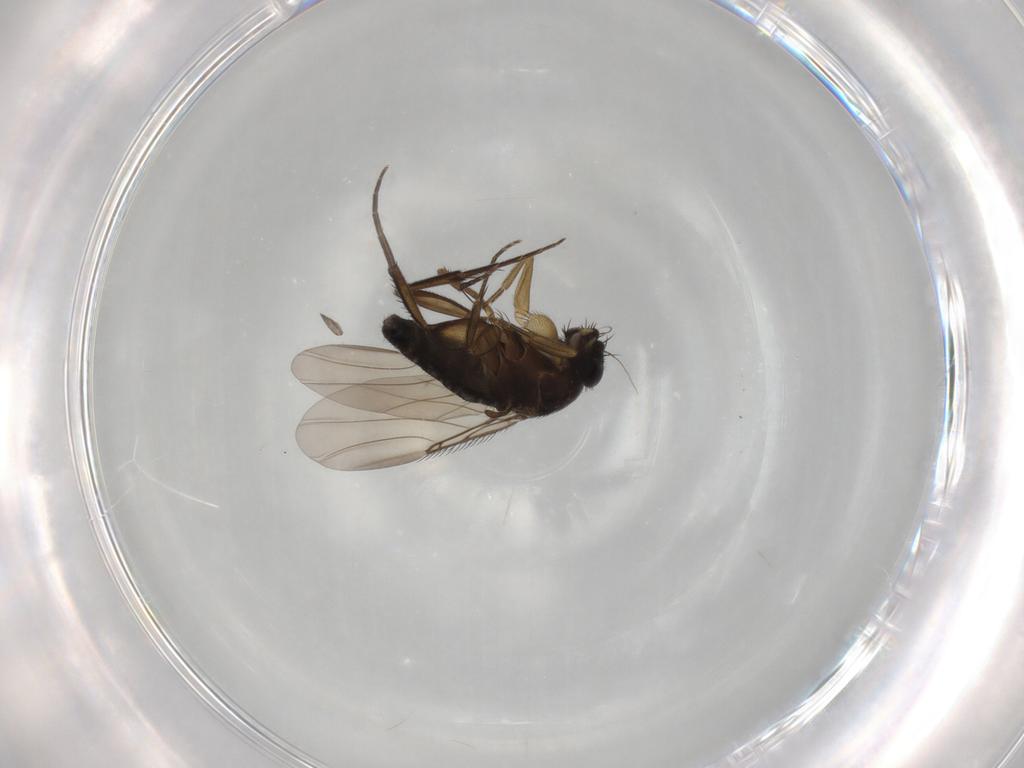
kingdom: Animalia
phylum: Arthropoda
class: Insecta
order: Diptera
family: Phoridae
